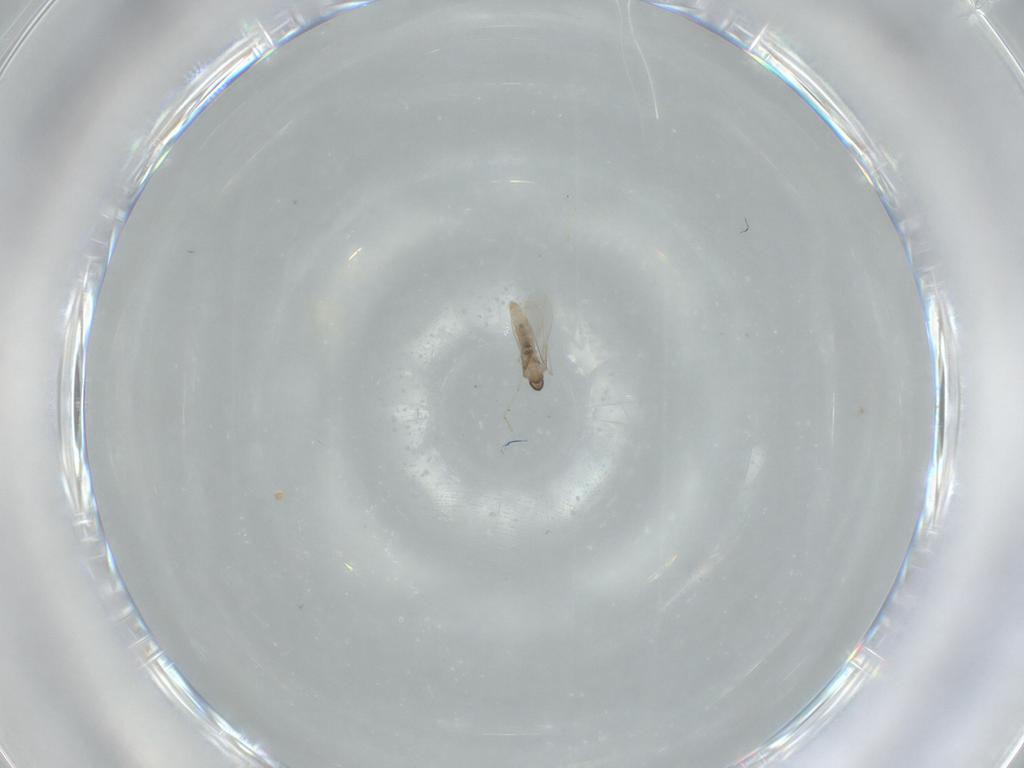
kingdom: Animalia
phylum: Arthropoda
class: Insecta
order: Diptera
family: Cecidomyiidae
